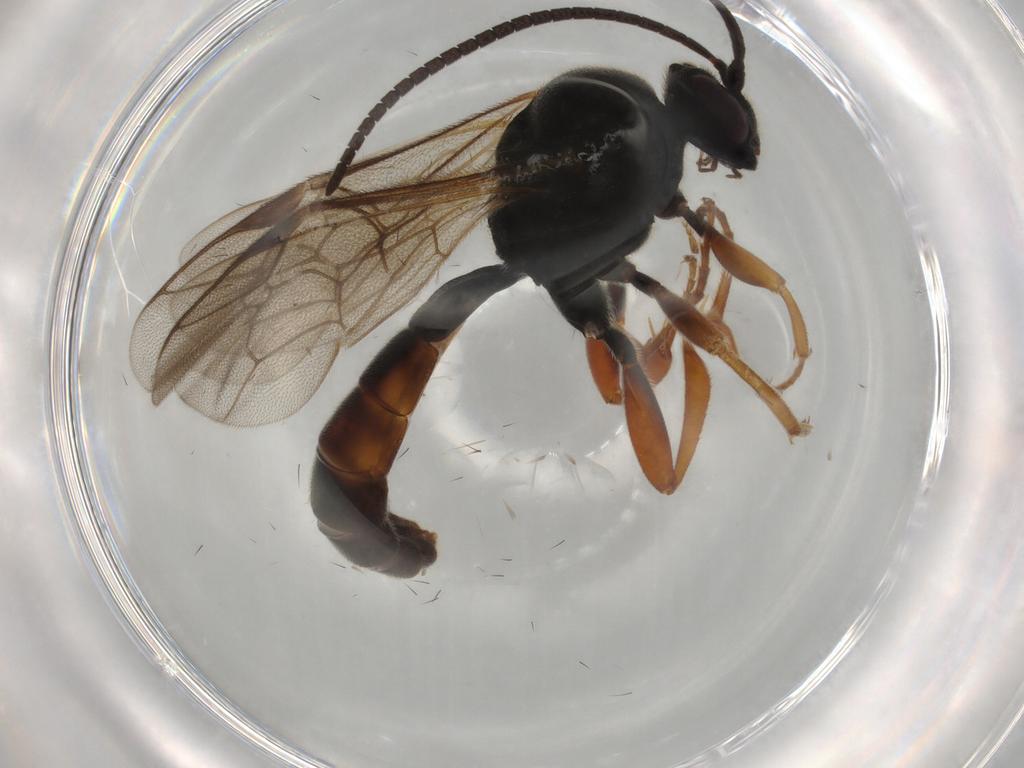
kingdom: Animalia
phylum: Arthropoda
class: Insecta
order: Hymenoptera
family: Ichneumonidae
